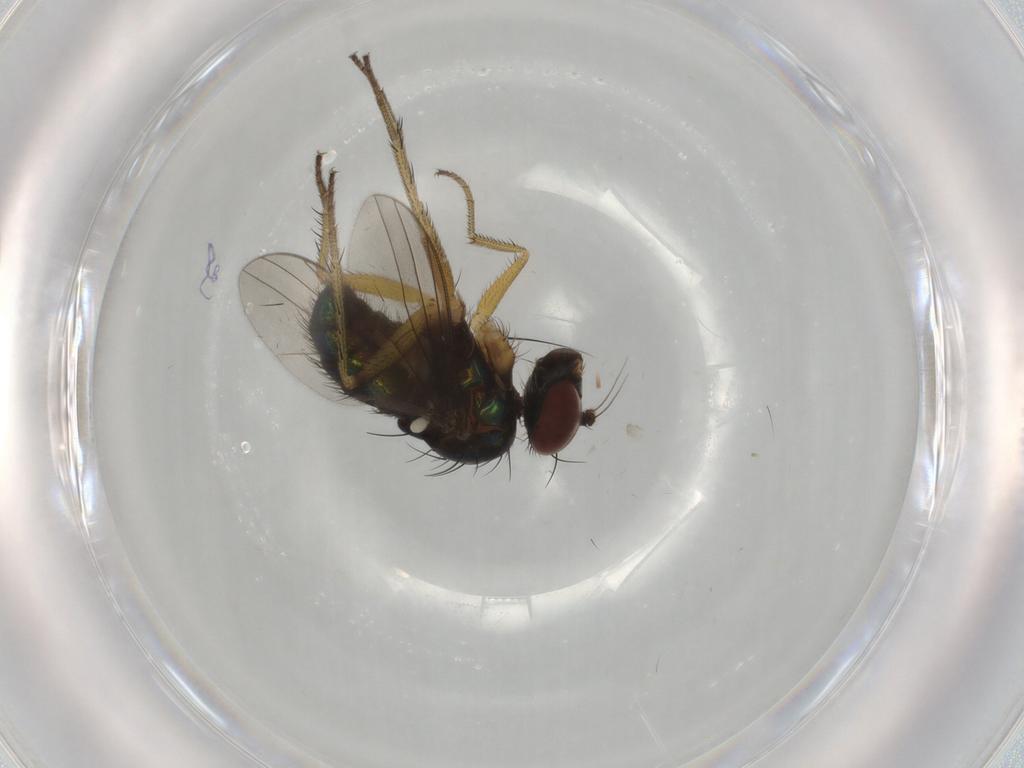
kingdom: Animalia
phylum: Arthropoda
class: Insecta
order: Diptera
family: Dolichopodidae
